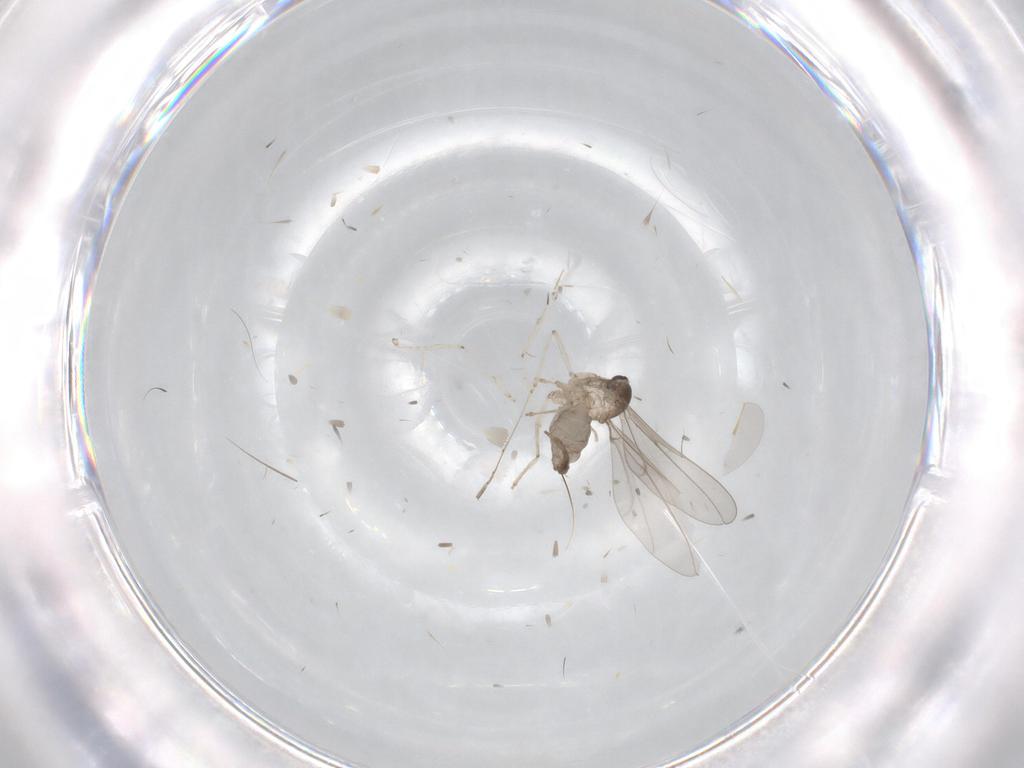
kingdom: Animalia
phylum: Arthropoda
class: Insecta
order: Diptera
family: Cecidomyiidae
